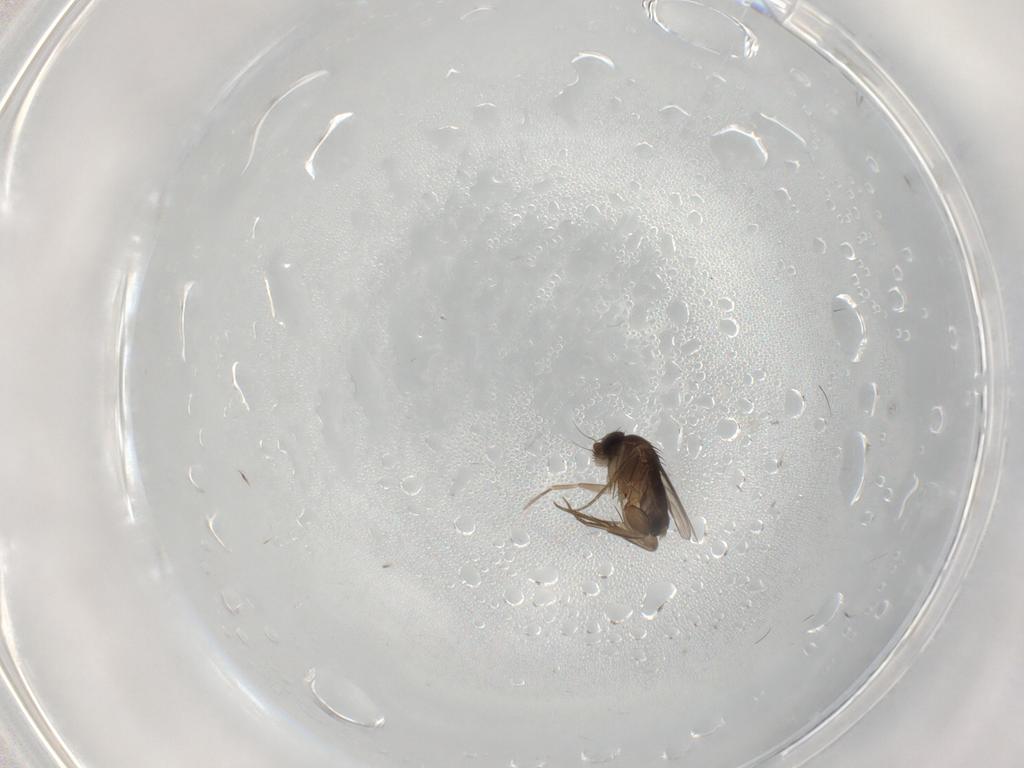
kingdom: Animalia
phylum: Arthropoda
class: Insecta
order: Diptera
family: Phoridae
